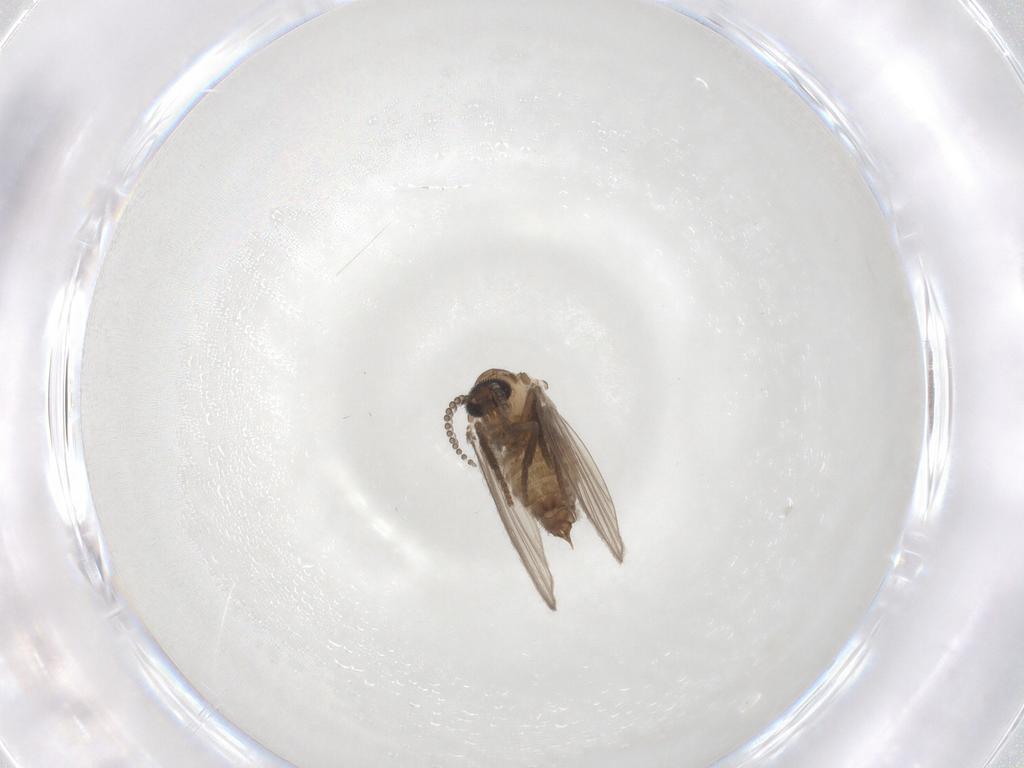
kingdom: Animalia
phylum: Arthropoda
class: Insecta
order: Diptera
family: Psychodidae
